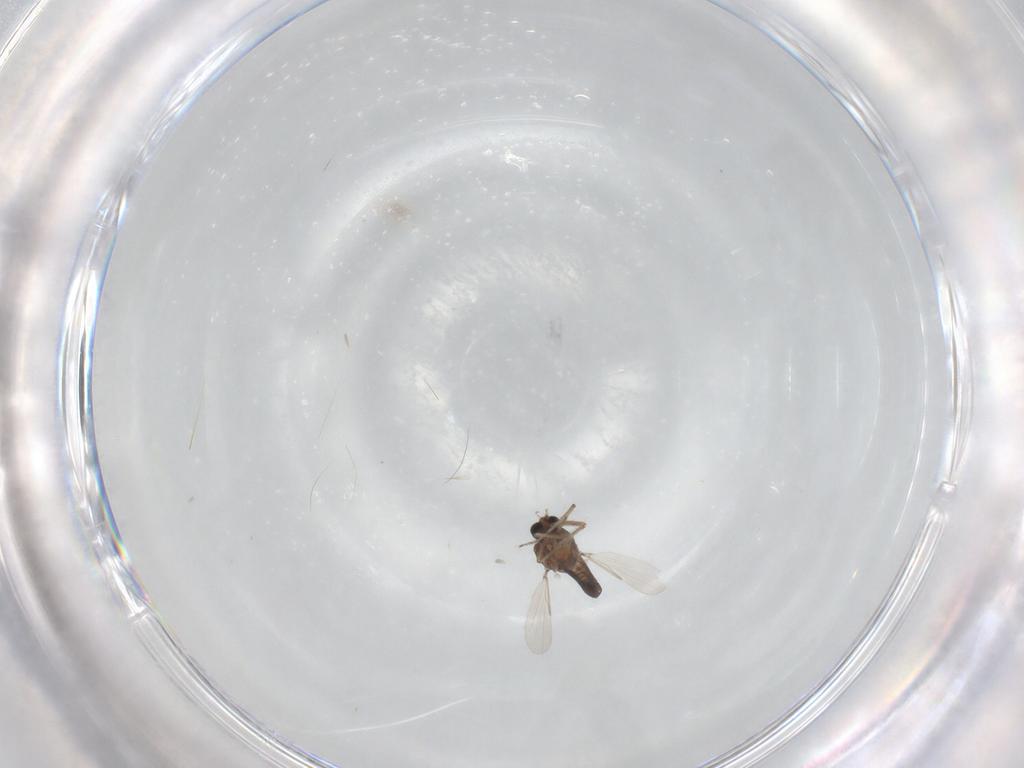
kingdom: Animalia
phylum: Arthropoda
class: Insecta
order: Diptera
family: Ceratopogonidae
